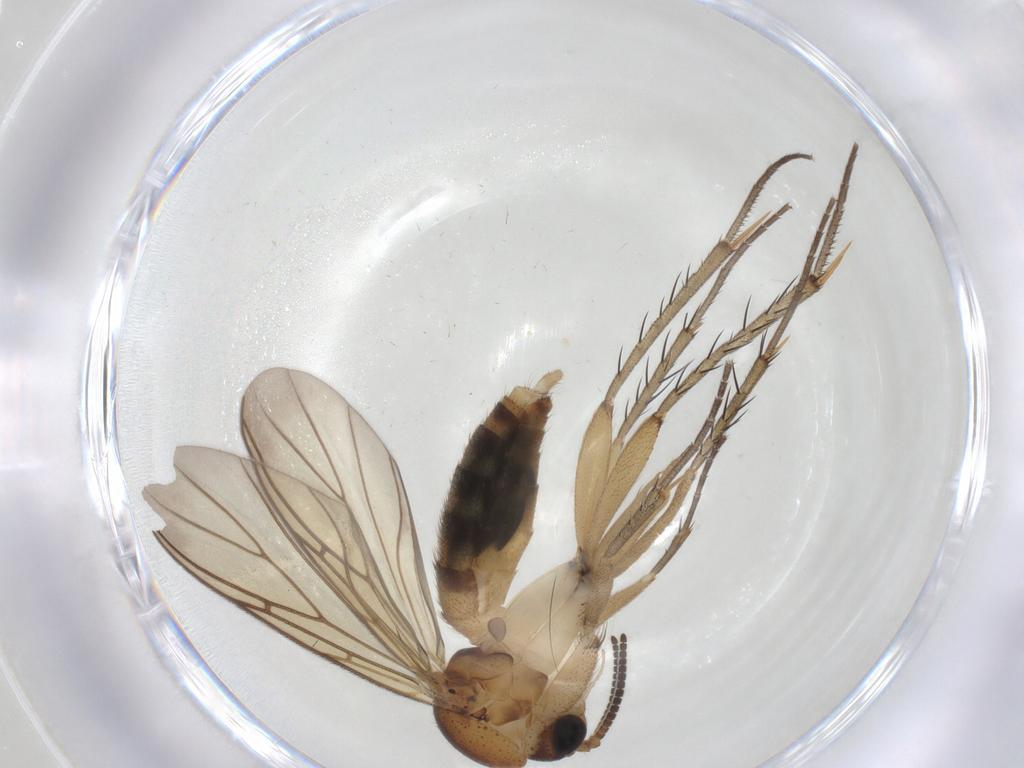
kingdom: Animalia
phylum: Arthropoda
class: Insecta
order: Diptera
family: Mycetophilidae
